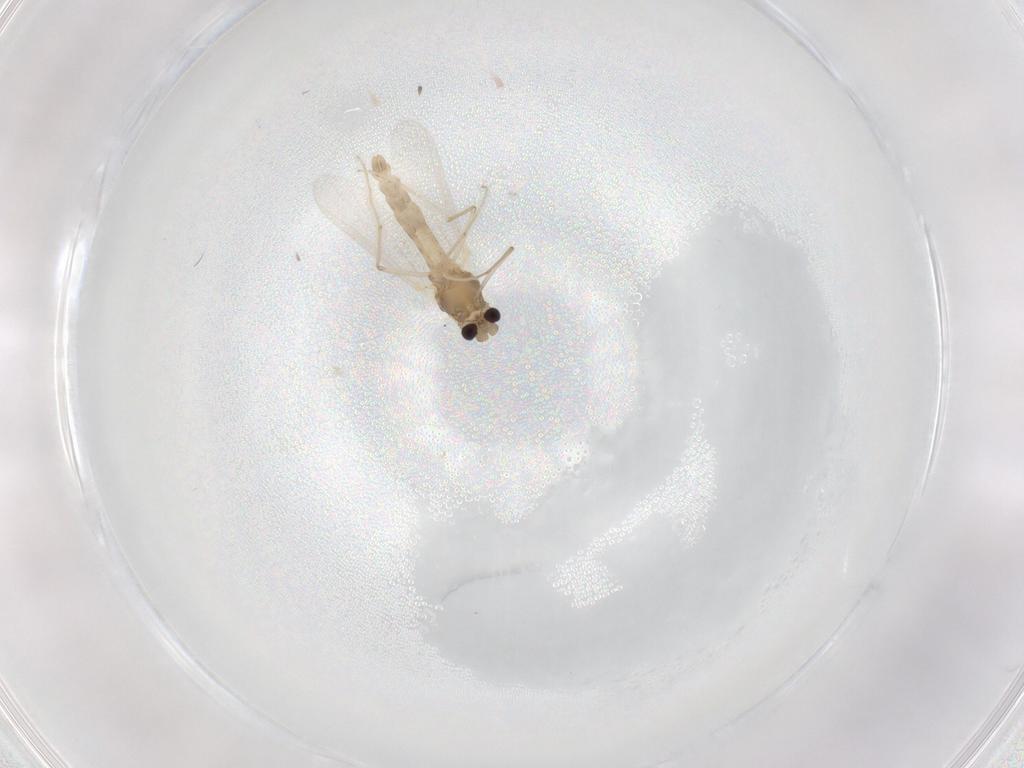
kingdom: Animalia
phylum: Arthropoda
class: Insecta
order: Diptera
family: Chironomidae
